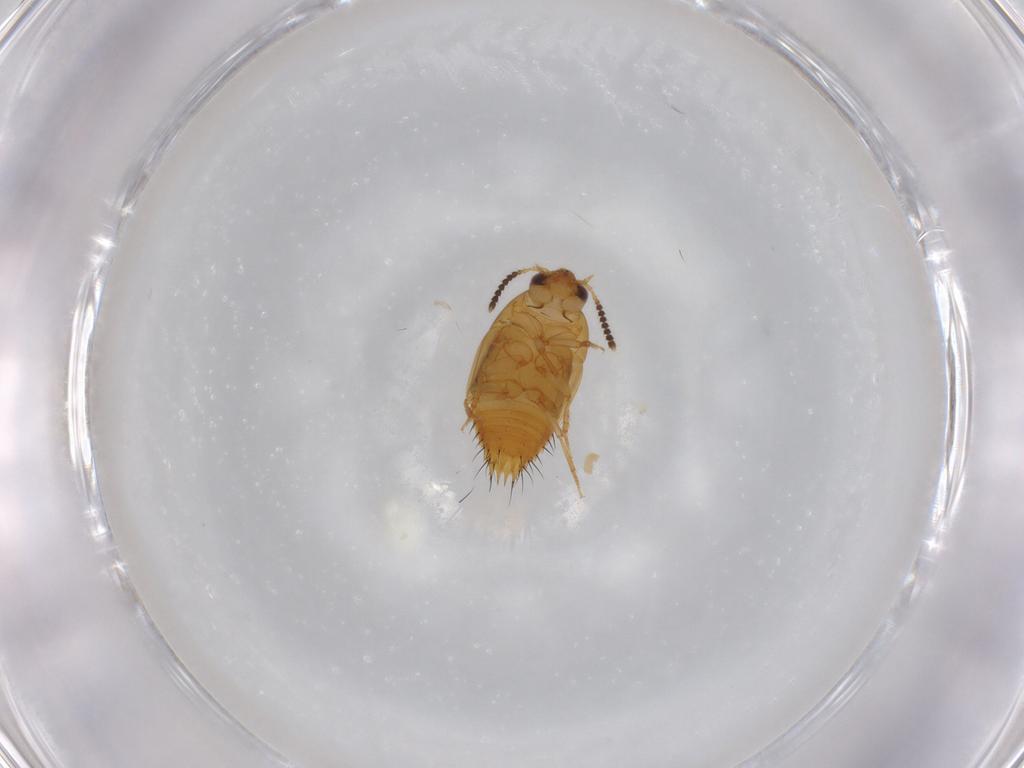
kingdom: Animalia
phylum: Arthropoda
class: Insecta
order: Coleoptera
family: Staphylinidae
